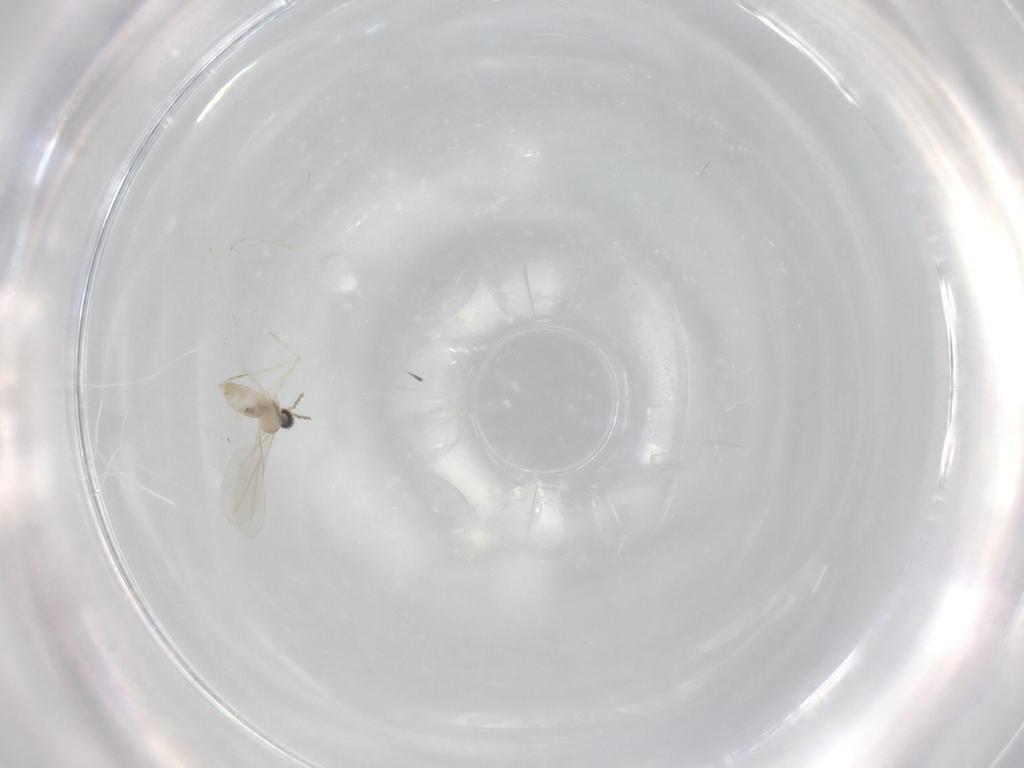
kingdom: Animalia
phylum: Arthropoda
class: Insecta
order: Diptera
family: Cecidomyiidae
